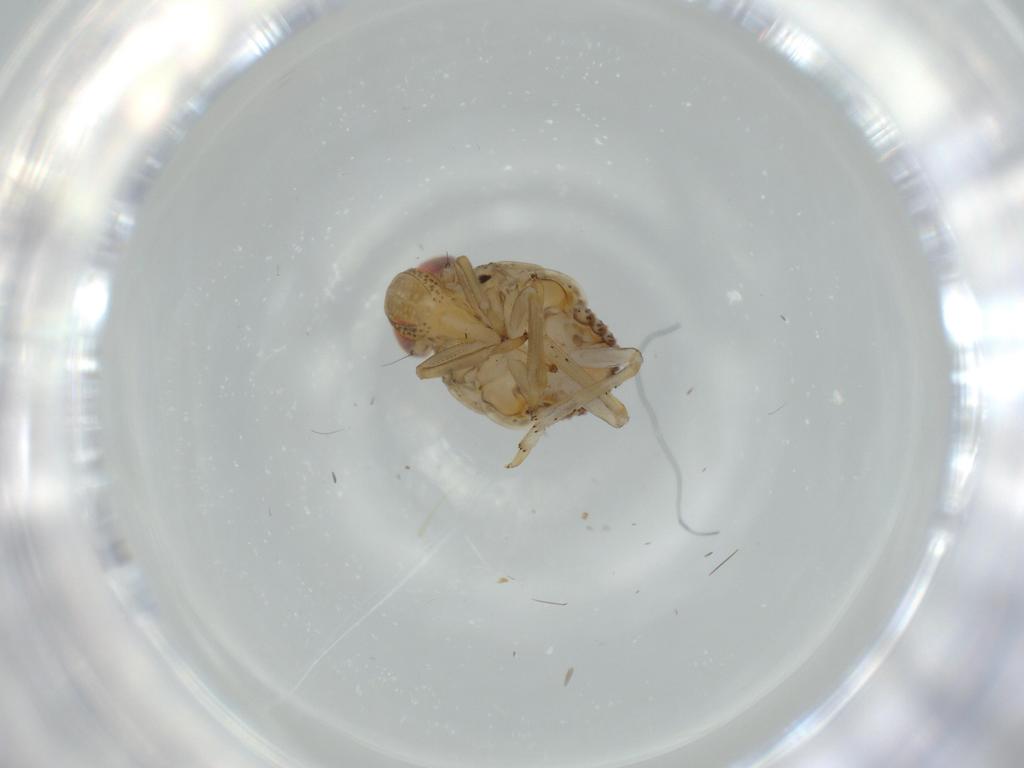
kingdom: Animalia
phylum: Arthropoda
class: Insecta
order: Hemiptera
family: Issidae
